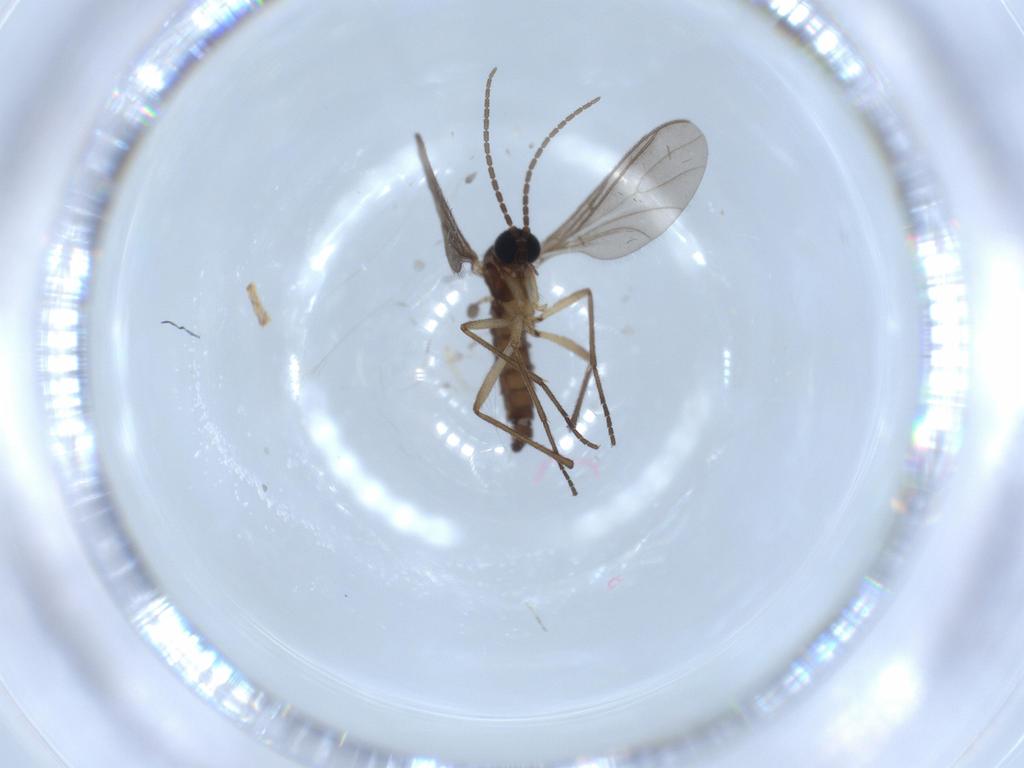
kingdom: Animalia
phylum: Arthropoda
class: Insecta
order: Diptera
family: Sciaridae
